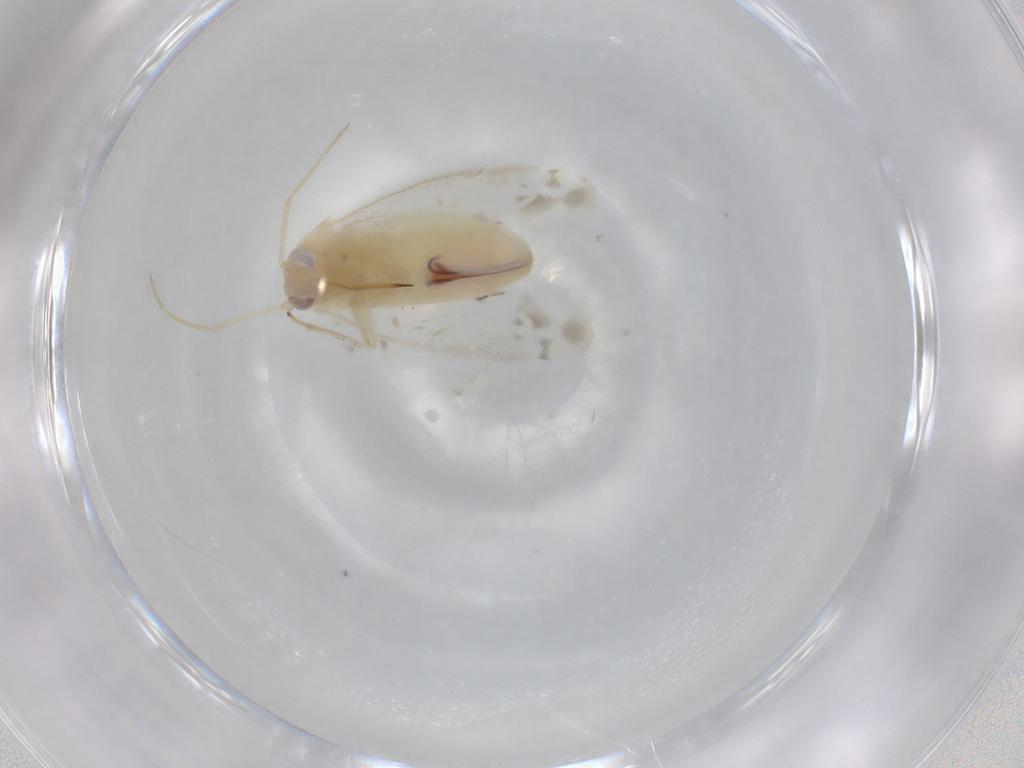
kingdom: Animalia
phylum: Arthropoda
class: Insecta
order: Hemiptera
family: Miridae
